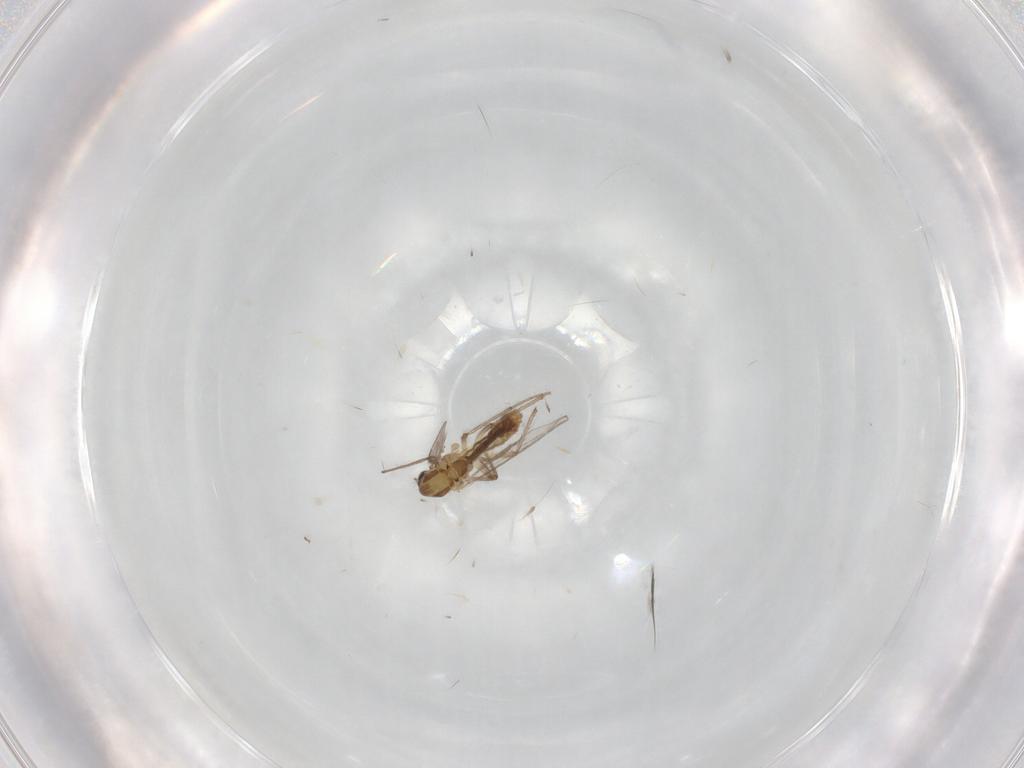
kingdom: Animalia
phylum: Arthropoda
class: Insecta
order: Diptera
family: Chironomidae
